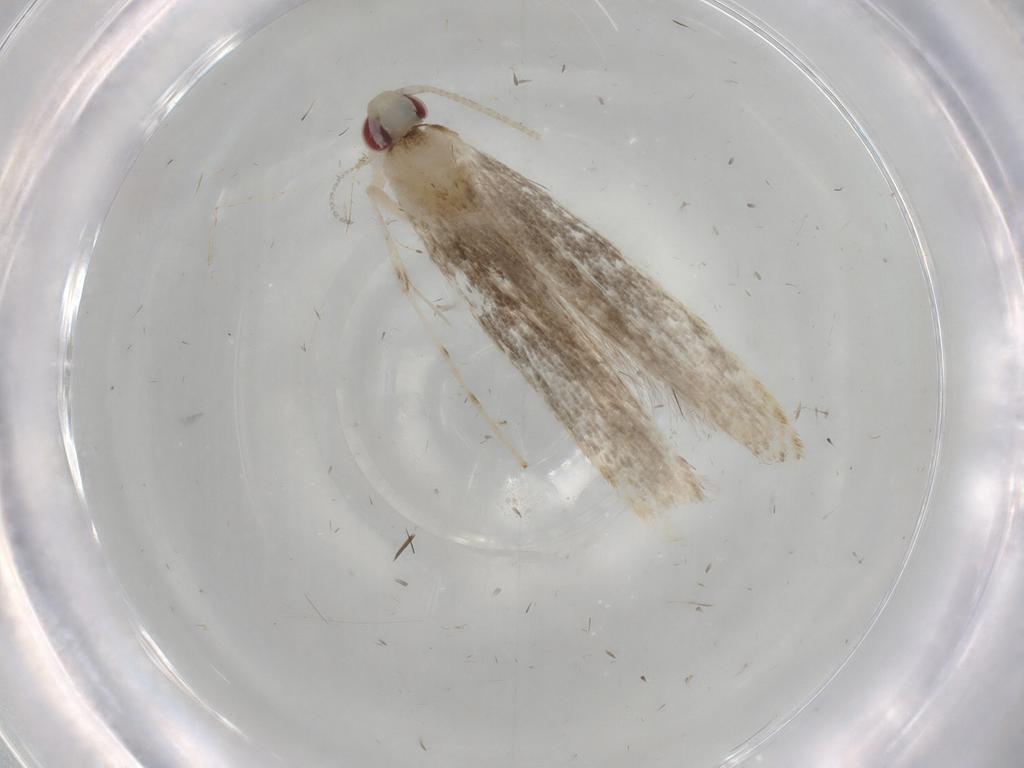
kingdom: Animalia
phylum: Arthropoda
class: Insecta
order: Lepidoptera
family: Nepticulidae
